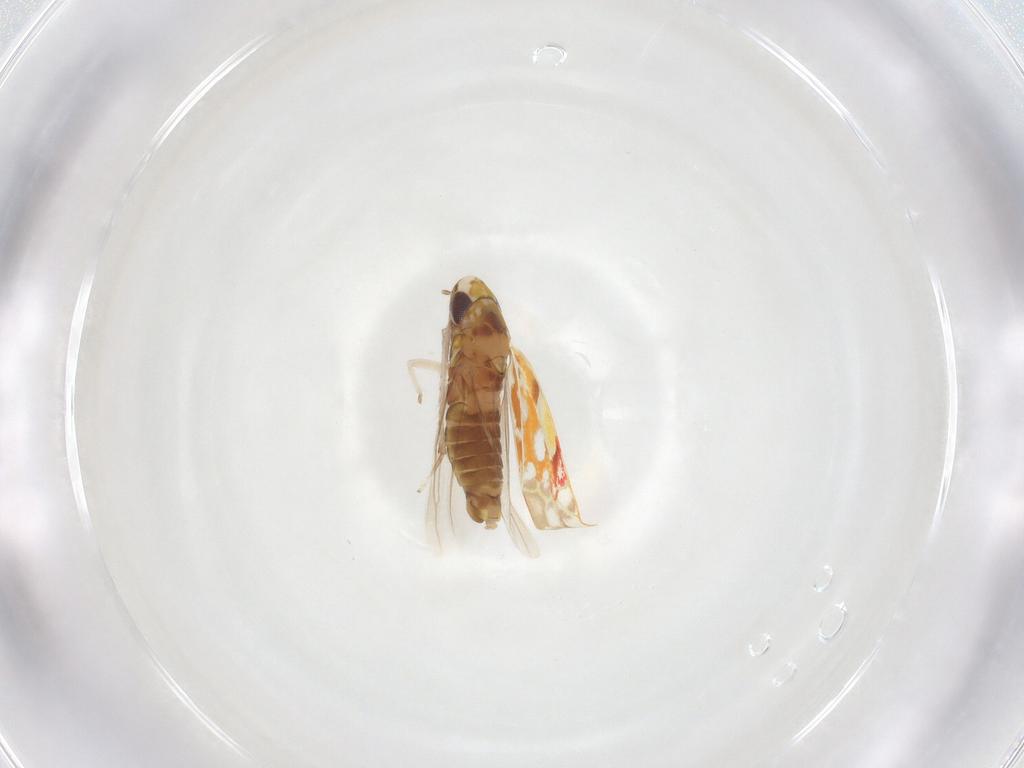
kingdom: Animalia
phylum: Arthropoda
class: Insecta
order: Hemiptera
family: Cicadellidae
